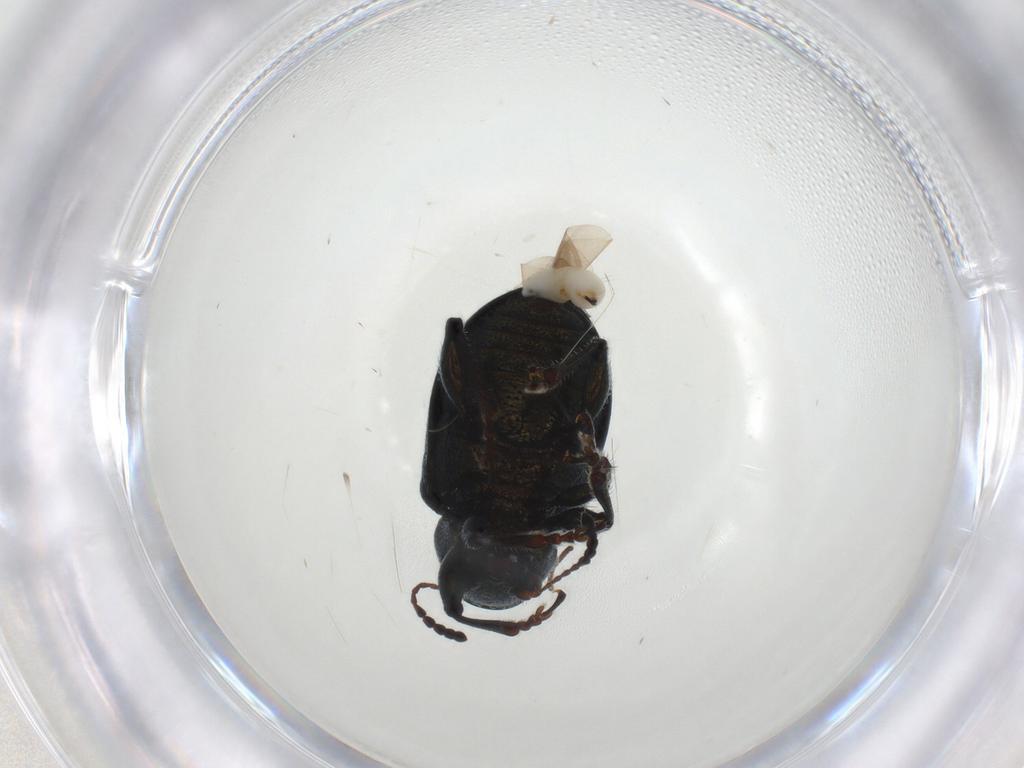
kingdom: Animalia
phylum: Arthropoda
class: Insecta
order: Coleoptera
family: Chrysomelidae
